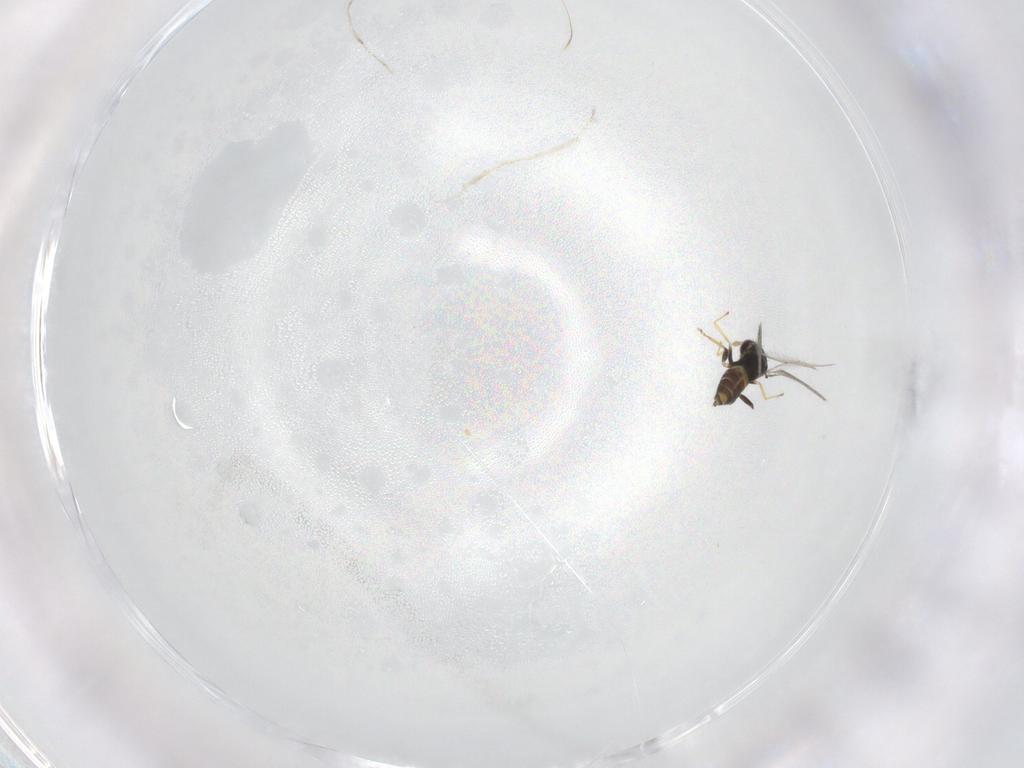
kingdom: Animalia
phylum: Arthropoda
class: Insecta
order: Hymenoptera
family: Eulophidae
